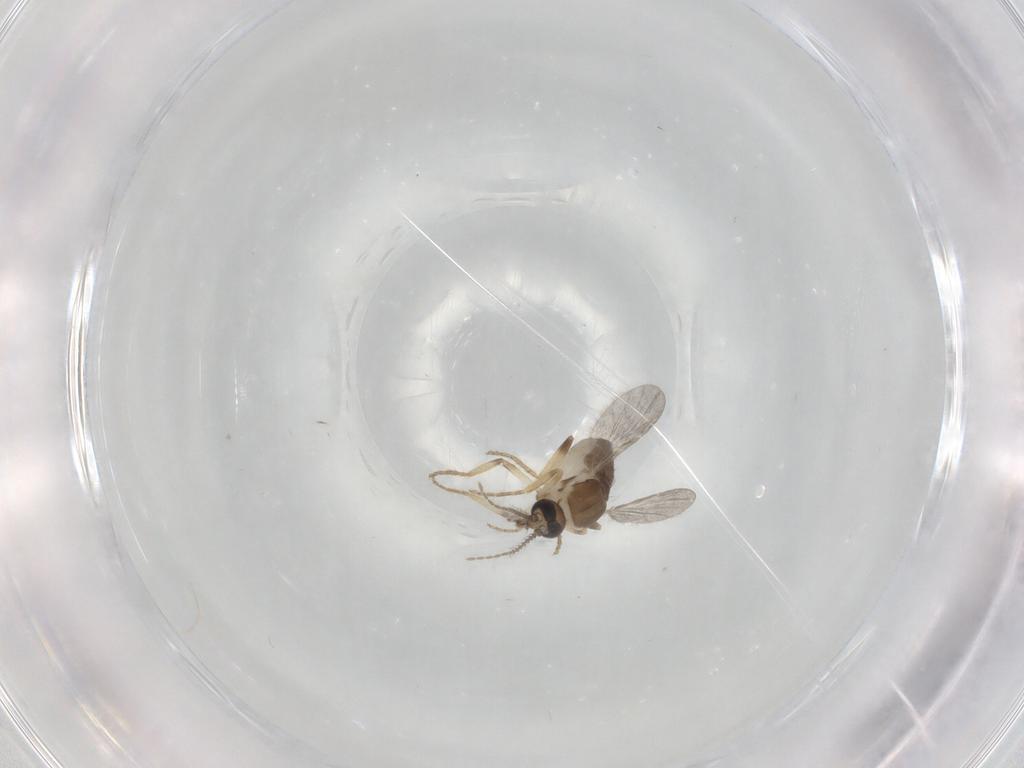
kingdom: Animalia
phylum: Arthropoda
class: Insecta
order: Diptera
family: Ceratopogonidae
